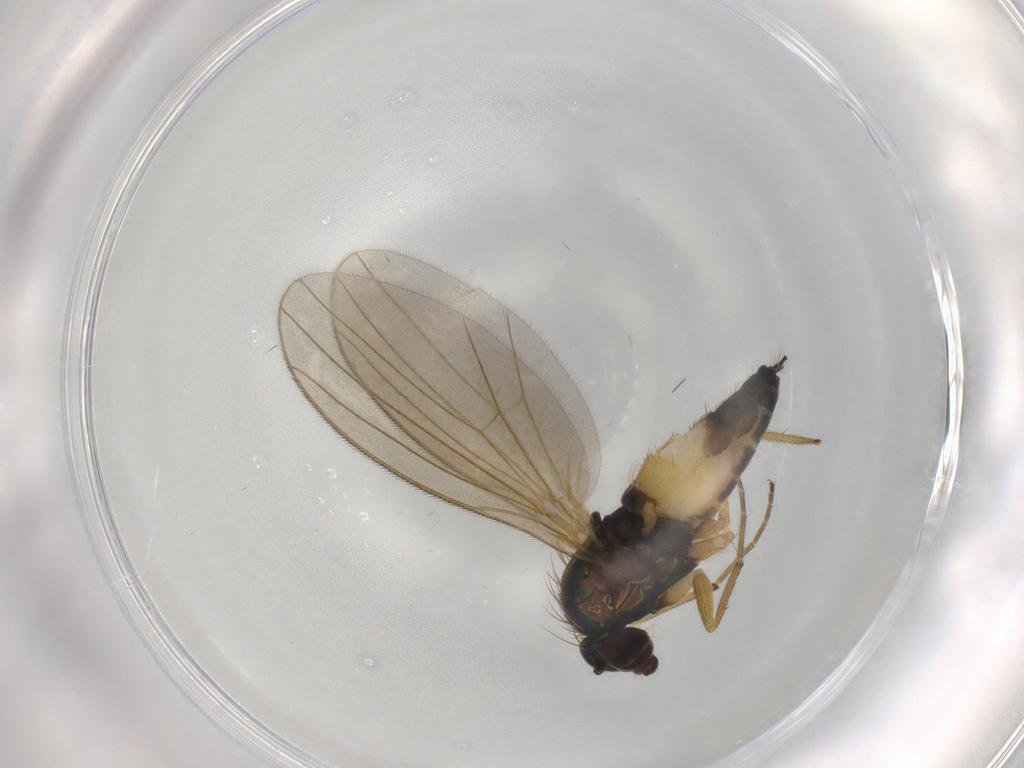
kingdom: Animalia
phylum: Arthropoda
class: Insecta
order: Diptera
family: Dolichopodidae
